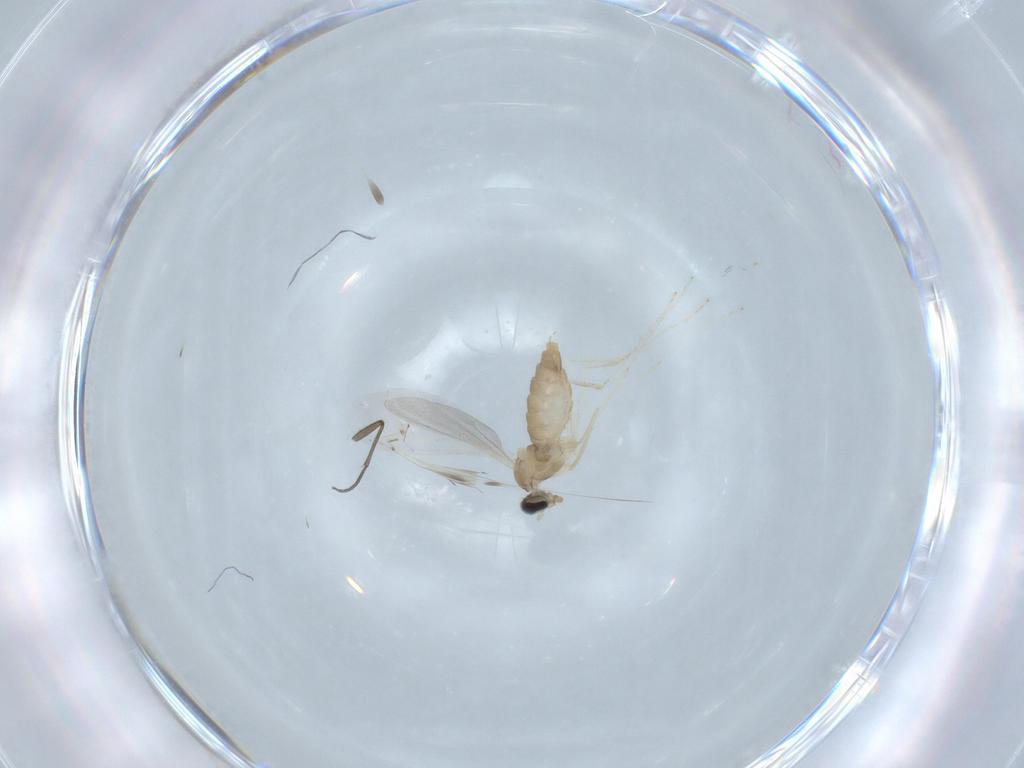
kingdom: Animalia
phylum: Arthropoda
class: Insecta
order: Diptera
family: Cecidomyiidae
